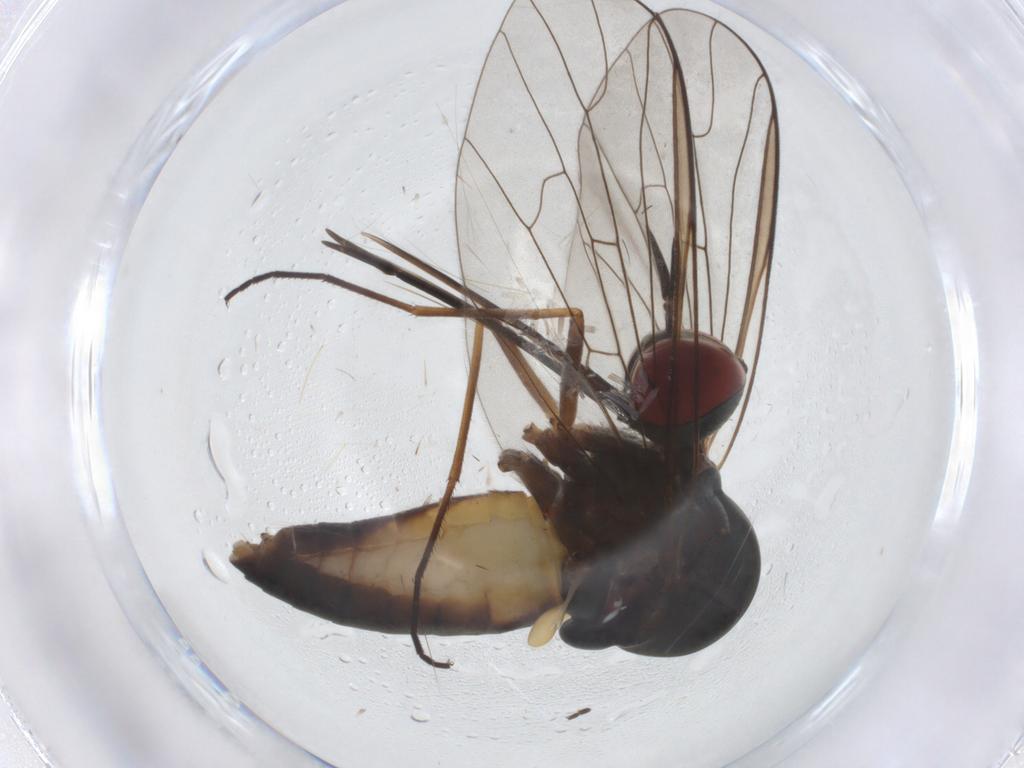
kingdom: Animalia
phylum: Arthropoda
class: Insecta
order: Diptera
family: Bombyliidae
